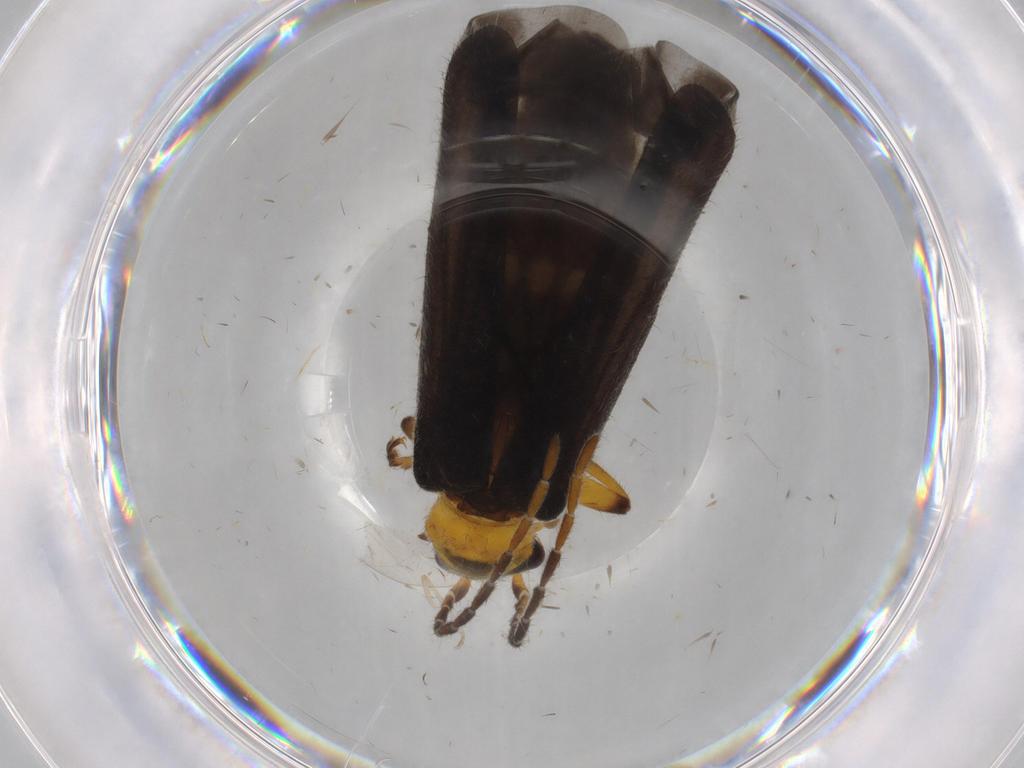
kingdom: Animalia
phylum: Arthropoda
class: Insecta
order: Coleoptera
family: Cantharidae
